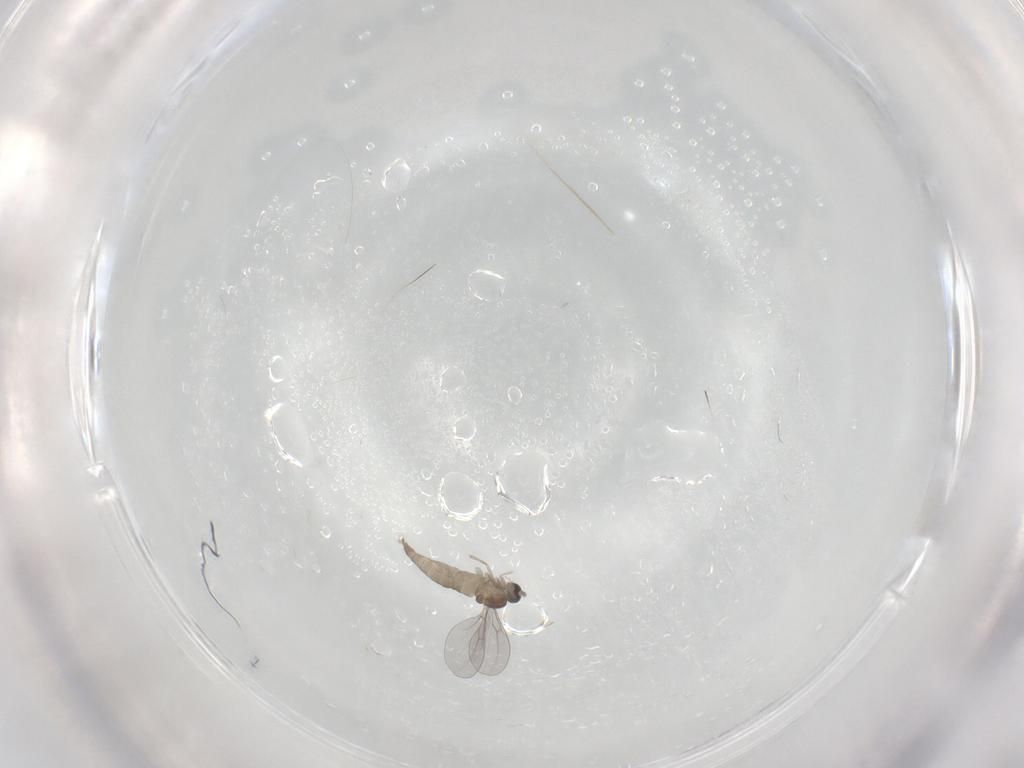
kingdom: Animalia
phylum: Arthropoda
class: Insecta
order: Diptera
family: Cecidomyiidae
